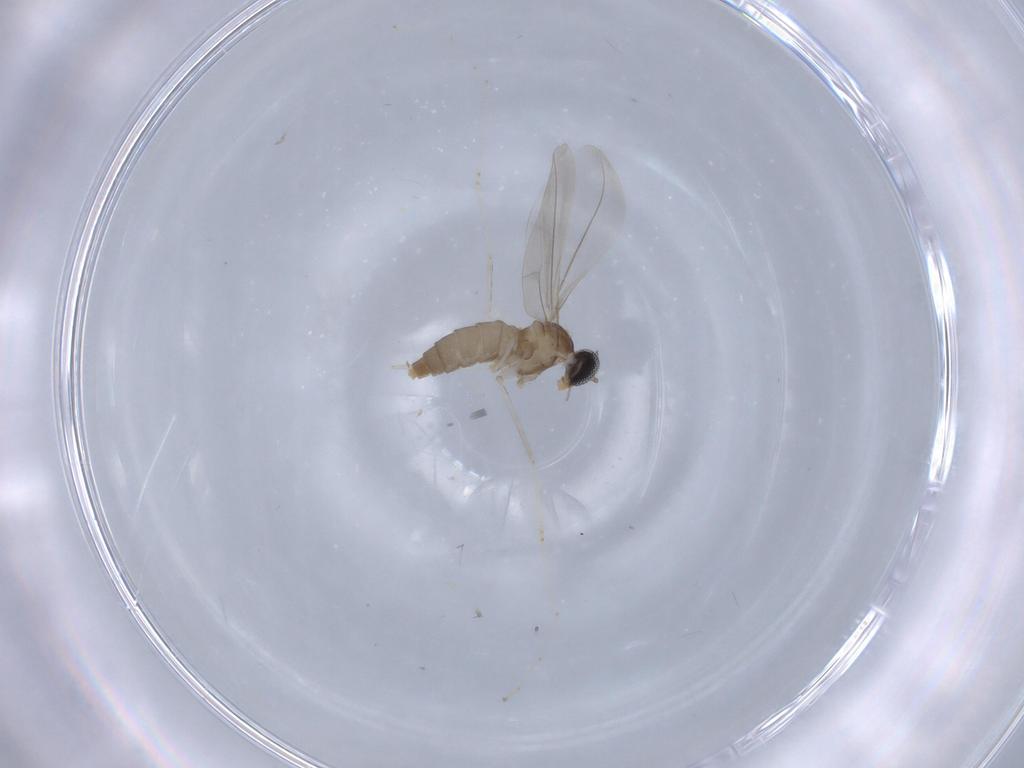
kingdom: Animalia
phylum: Arthropoda
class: Insecta
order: Diptera
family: Cecidomyiidae
